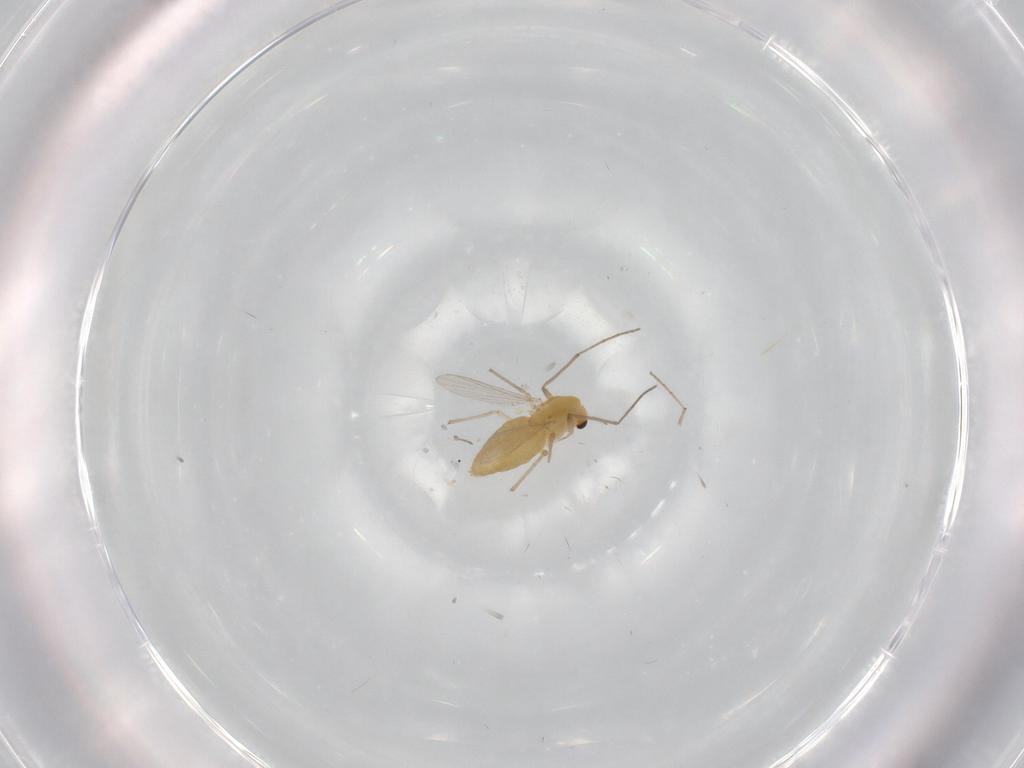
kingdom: Animalia
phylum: Arthropoda
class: Insecta
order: Diptera
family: Chironomidae
